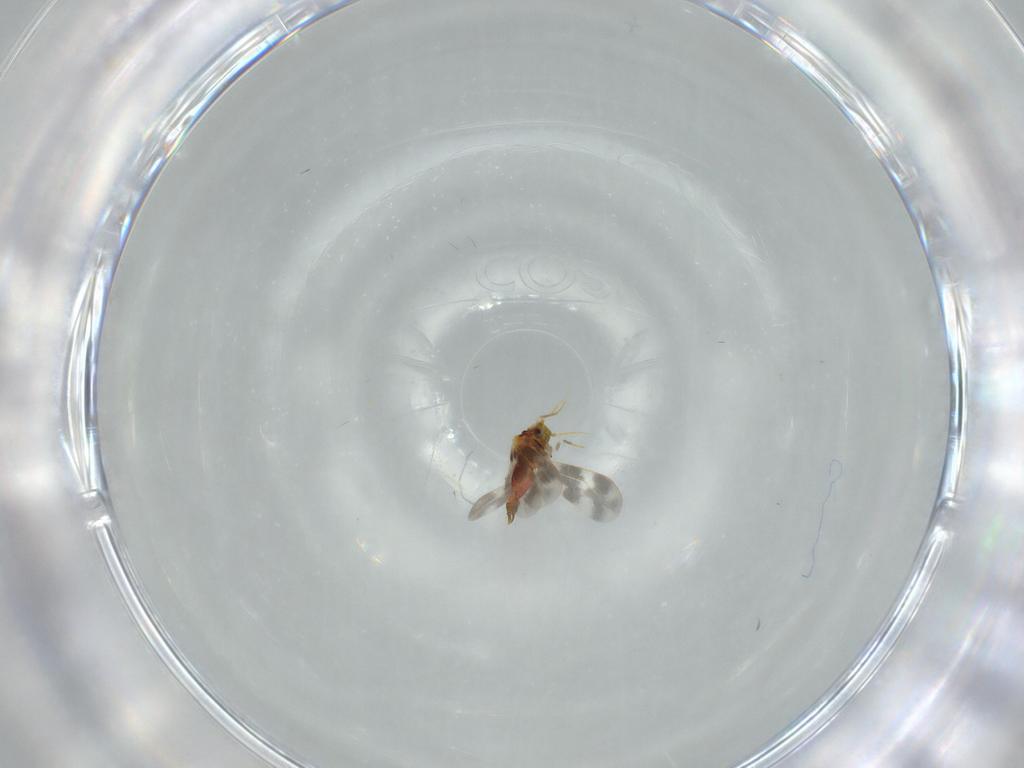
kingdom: Animalia
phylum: Arthropoda
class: Insecta
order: Hemiptera
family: Aleyrodidae
